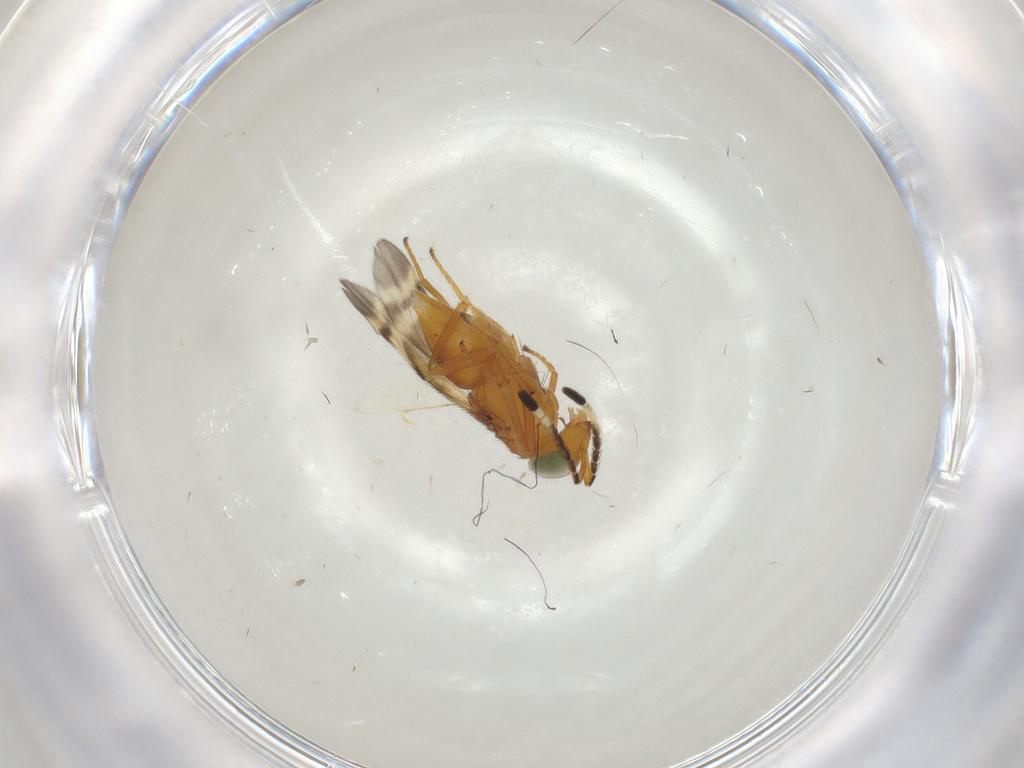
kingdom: Animalia
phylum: Arthropoda
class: Insecta
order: Hymenoptera
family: Encyrtidae
